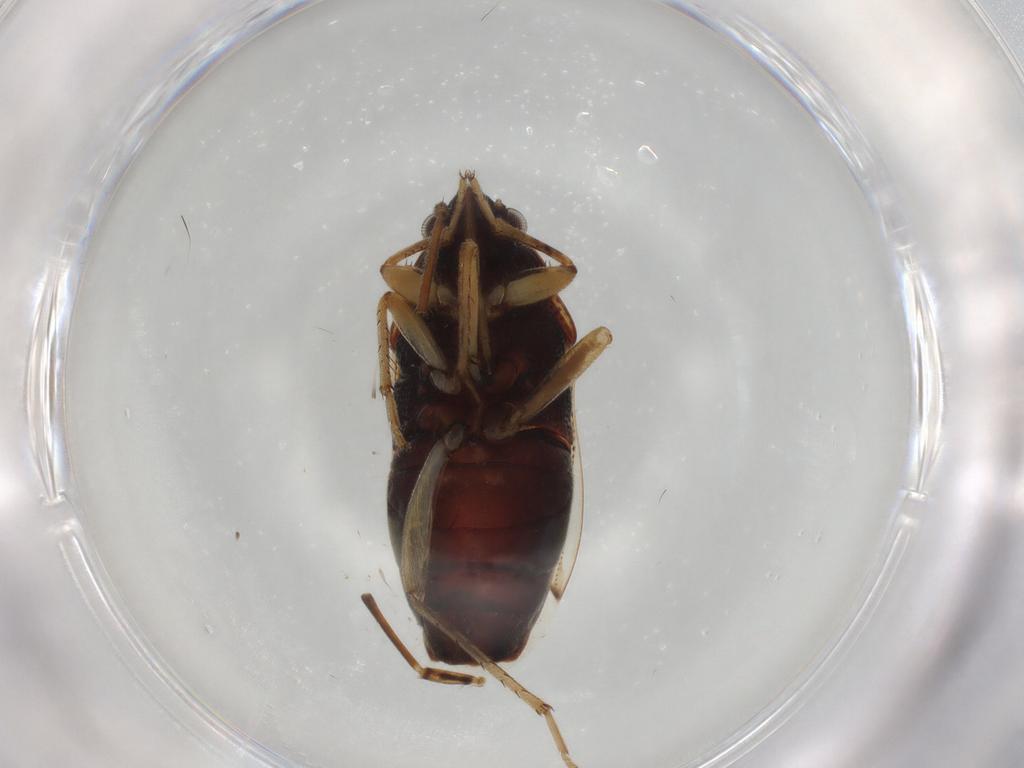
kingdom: Animalia
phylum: Arthropoda
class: Insecta
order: Hemiptera
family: Rhyparochromidae
